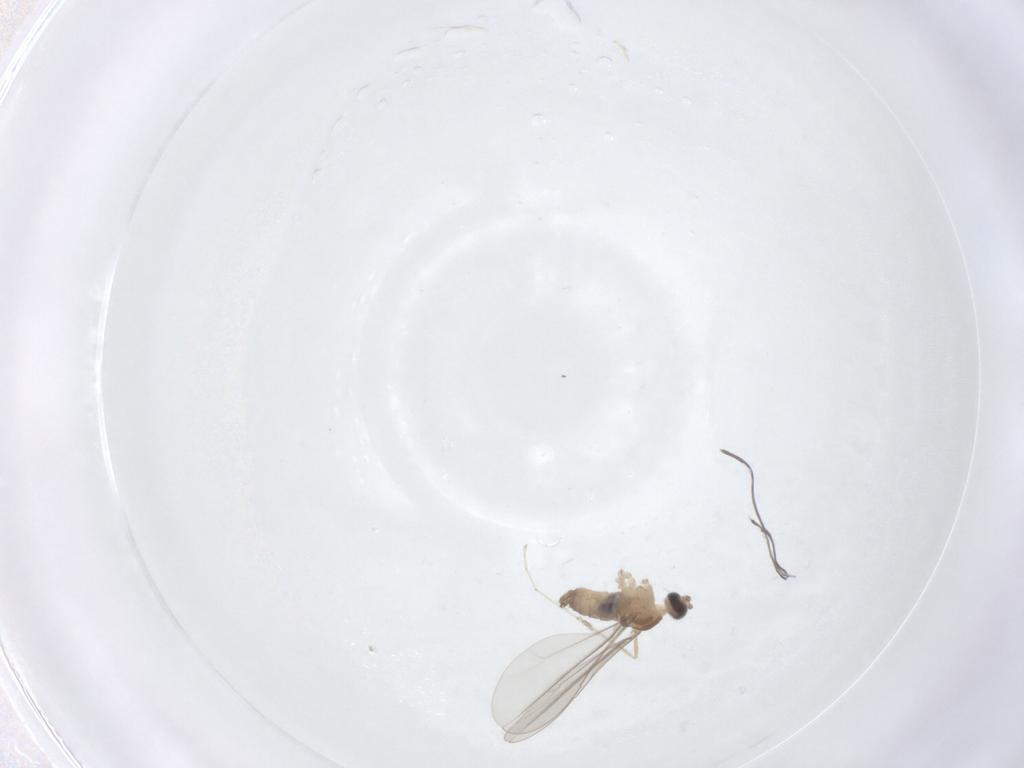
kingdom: Animalia
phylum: Arthropoda
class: Insecta
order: Diptera
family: Cecidomyiidae
